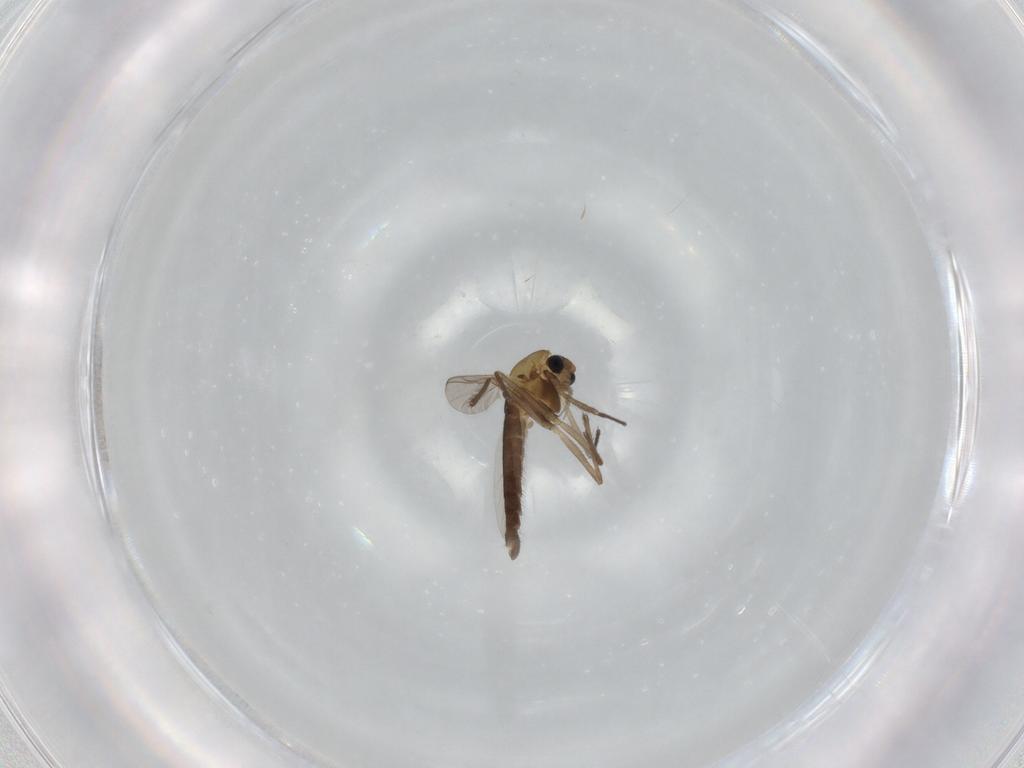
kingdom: Animalia
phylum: Arthropoda
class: Insecta
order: Diptera
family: Chironomidae
